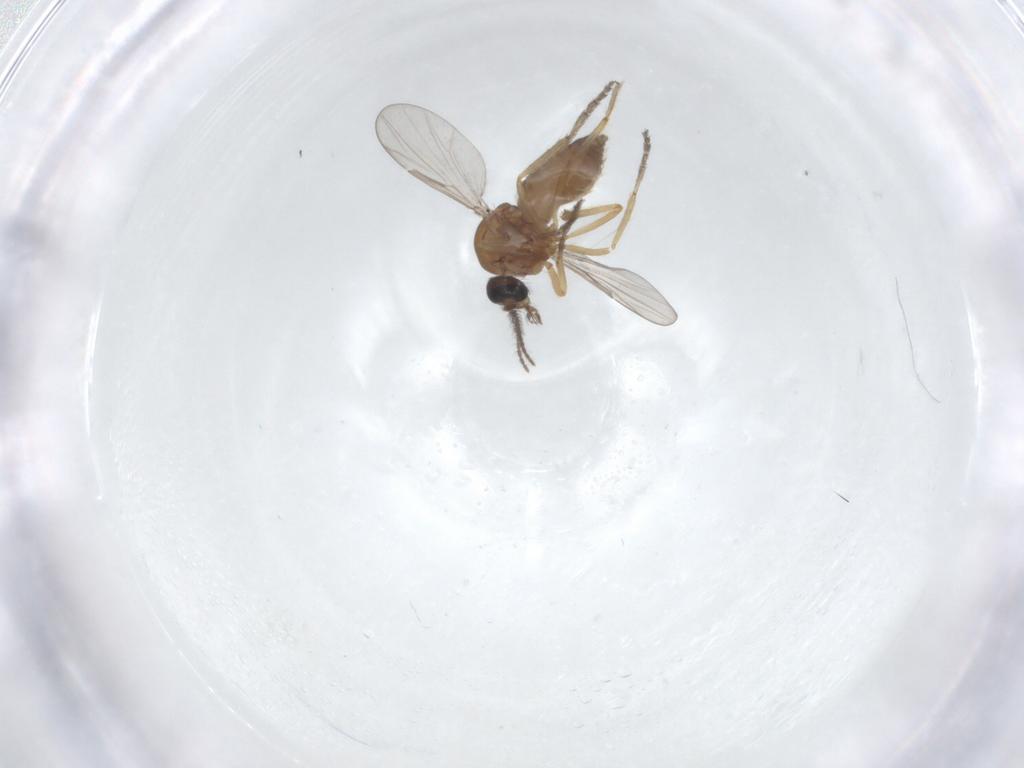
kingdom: Animalia
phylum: Arthropoda
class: Insecta
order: Diptera
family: Ceratopogonidae
